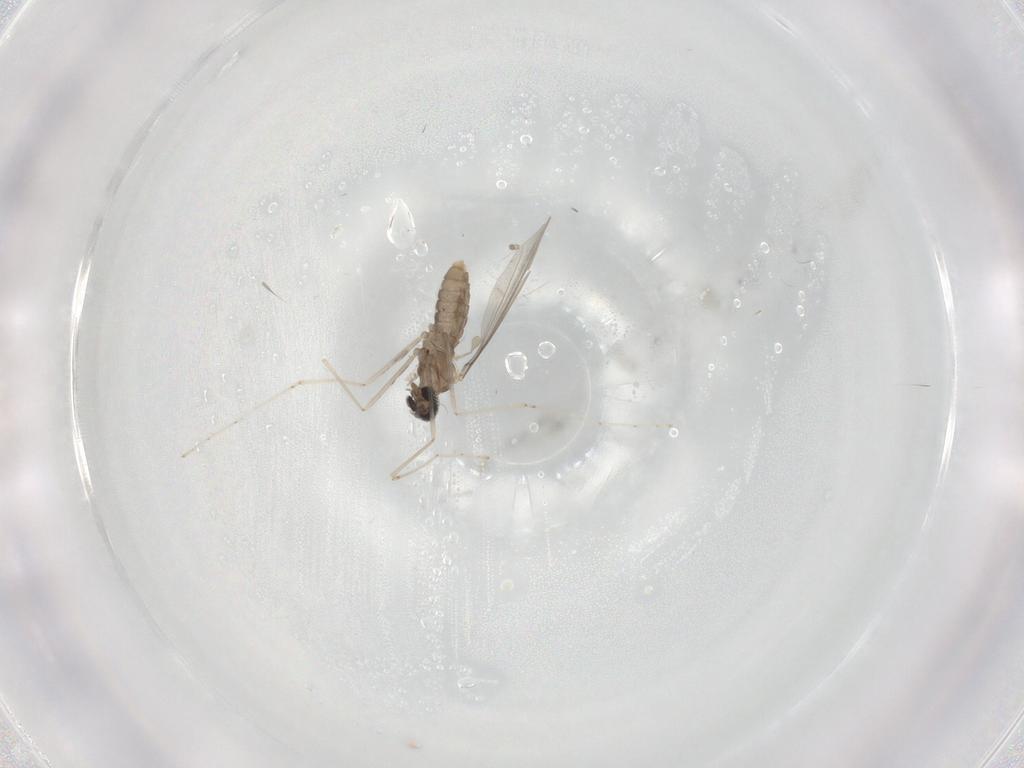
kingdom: Animalia
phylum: Arthropoda
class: Insecta
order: Diptera
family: Cecidomyiidae
